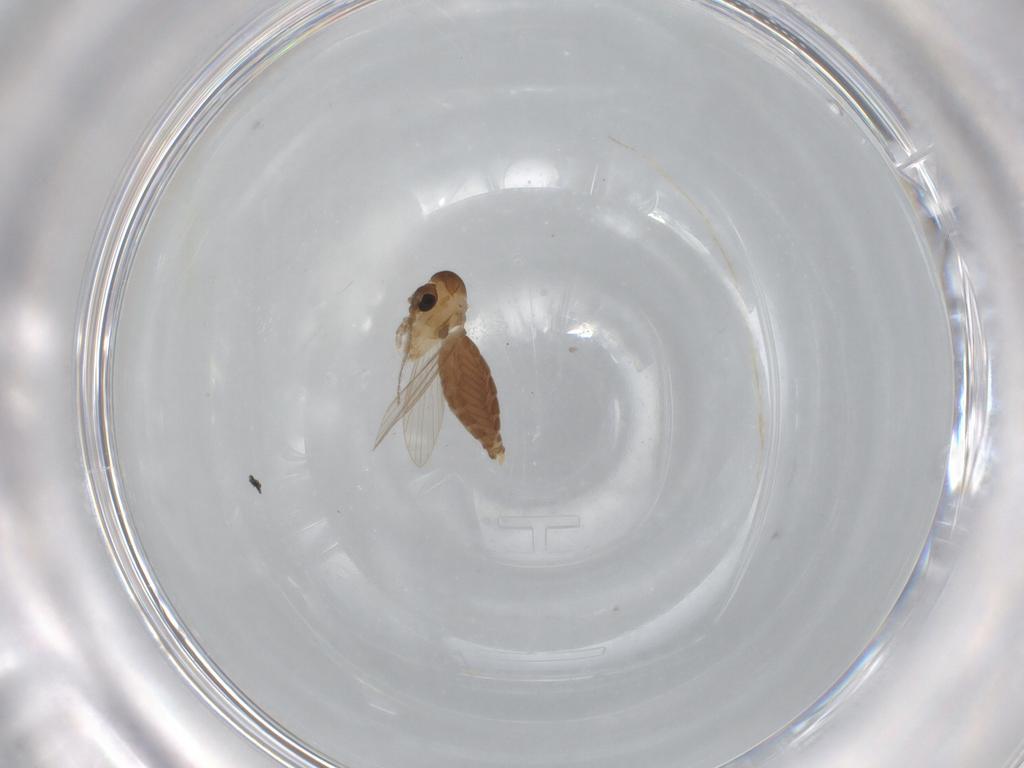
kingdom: Animalia
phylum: Arthropoda
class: Insecta
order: Diptera
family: Psychodidae
